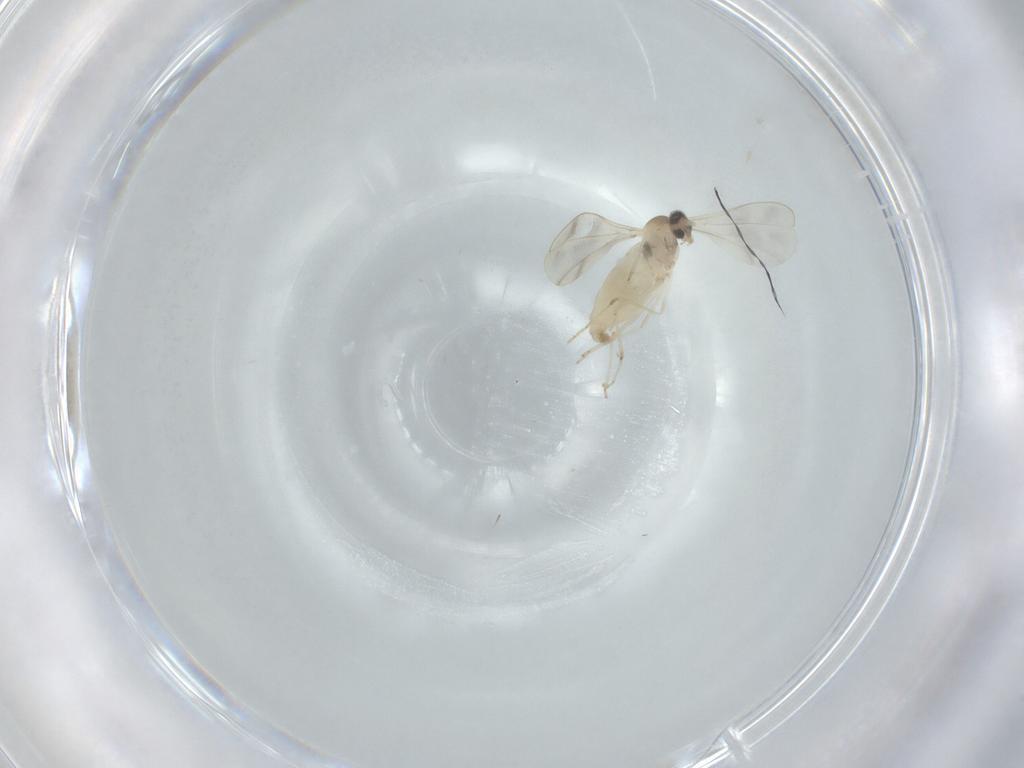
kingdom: Animalia
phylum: Arthropoda
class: Insecta
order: Diptera
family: Cecidomyiidae
